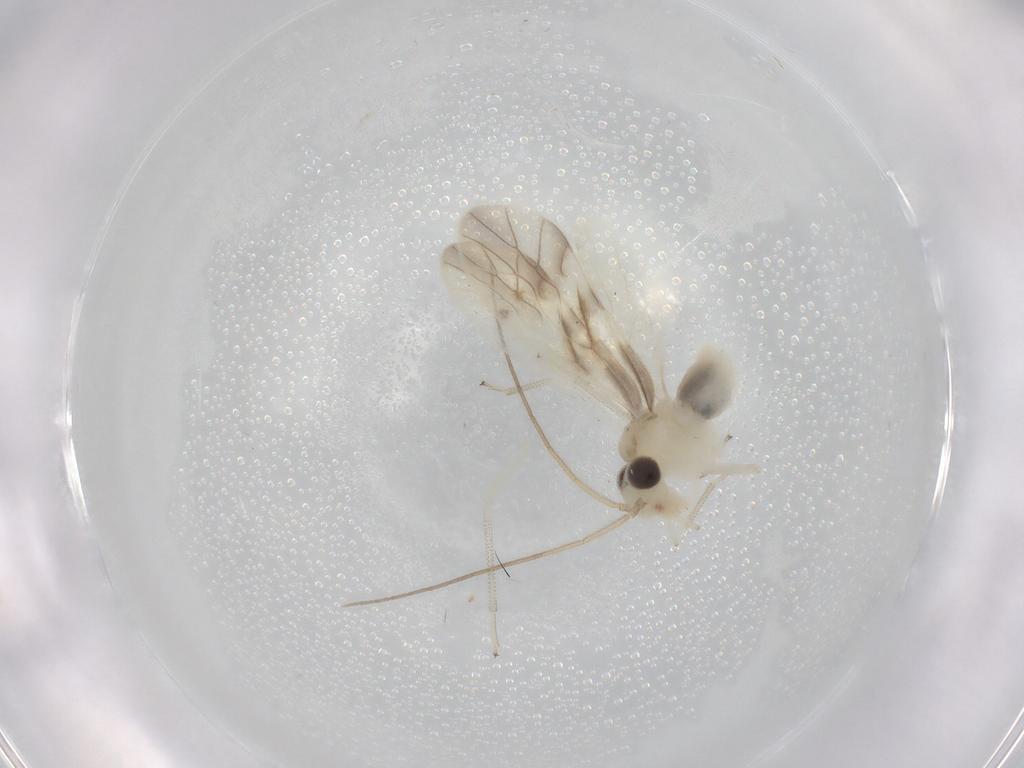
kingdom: Animalia
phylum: Arthropoda
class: Insecta
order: Psocodea
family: Caeciliusidae
